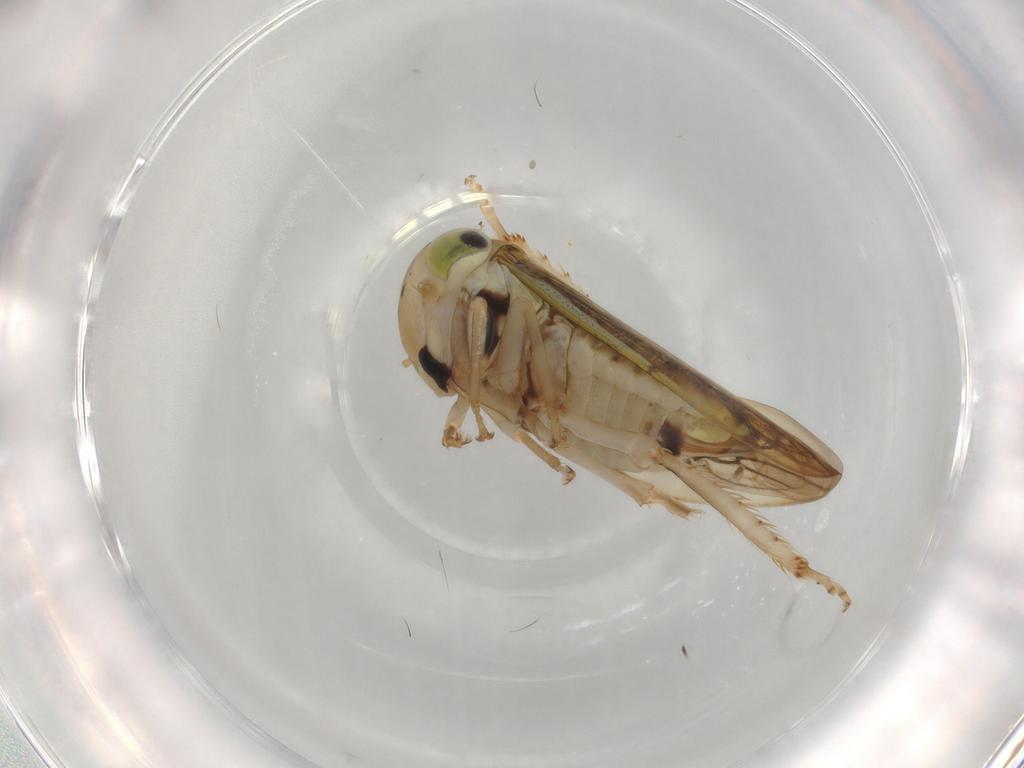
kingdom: Animalia
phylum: Arthropoda
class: Insecta
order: Hemiptera
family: Cicadellidae
